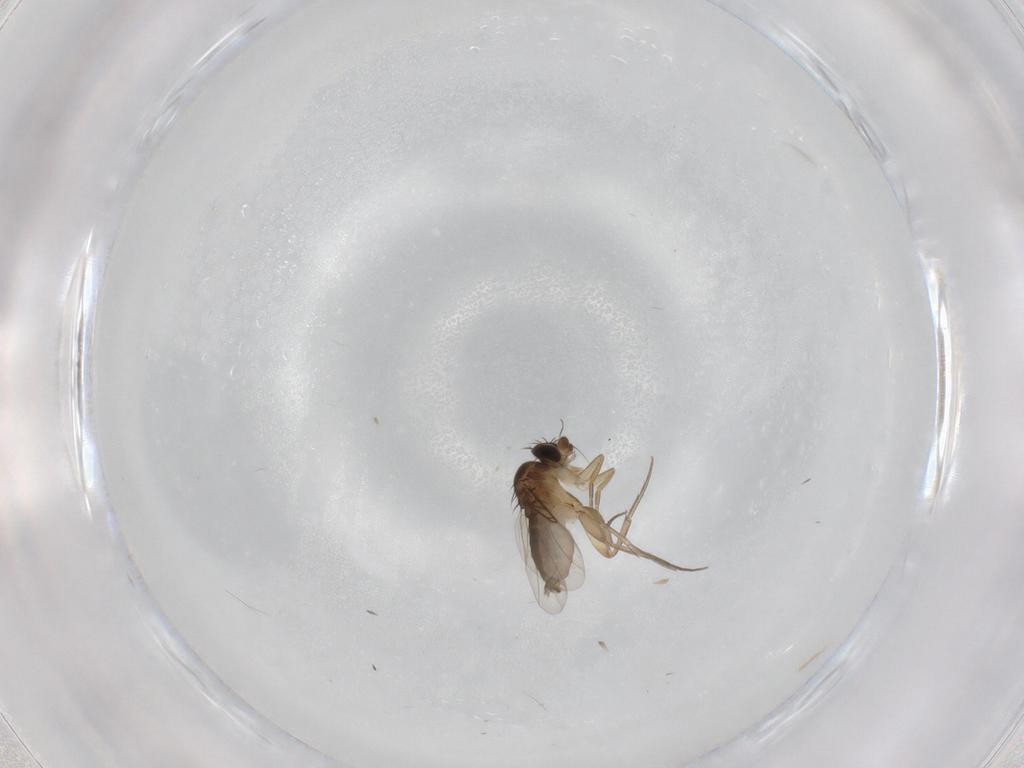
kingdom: Animalia
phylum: Arthropoda
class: Insecta
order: Diptera
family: Phoridae
